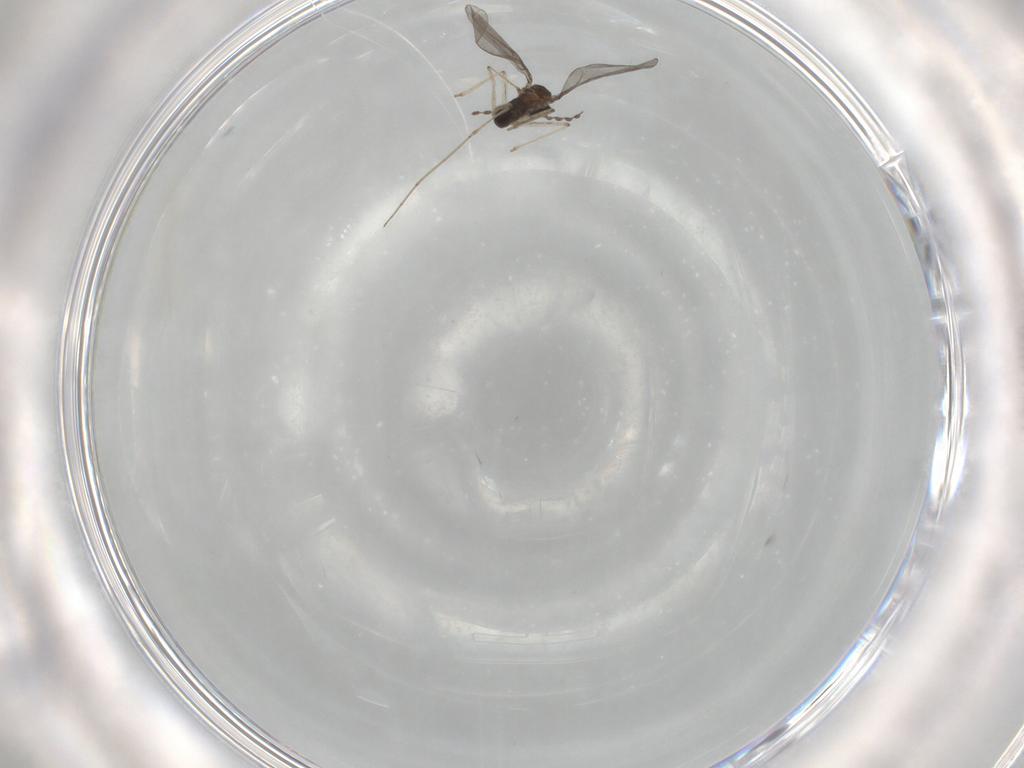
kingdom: Animalia
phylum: Arthropoda
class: Insecta
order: Diptera
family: Cecidomyiidae
